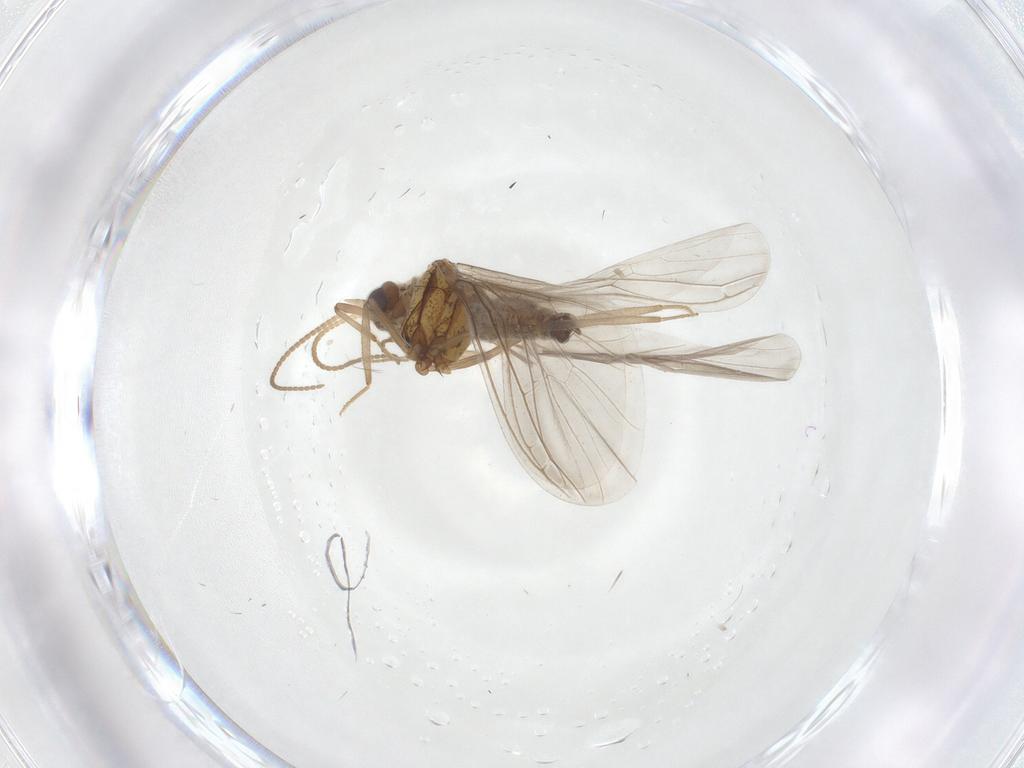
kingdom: Animalia
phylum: Arthropoda
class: Insecta
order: Neuroptera
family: Coniopterygidae
